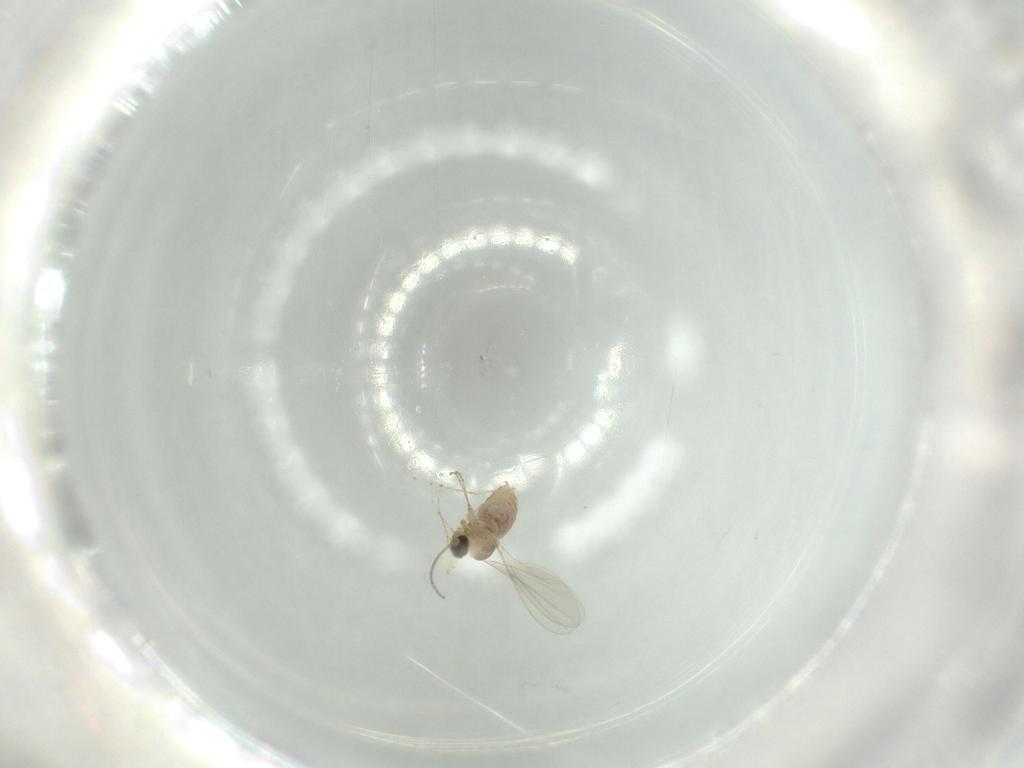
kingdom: Animalia
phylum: Arthropoda
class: Insecta
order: Diptera
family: Cecidomyiidae
